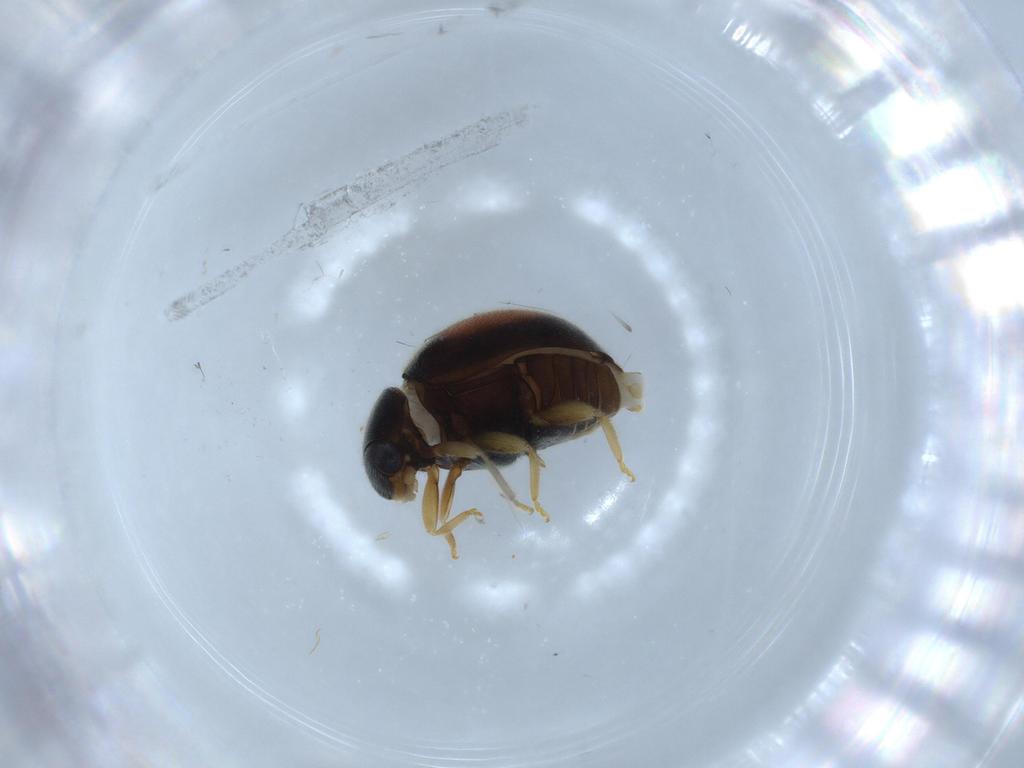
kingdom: Animalia
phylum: Arthropoda
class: Insecta
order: Coleoptera
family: Coccinellidae
